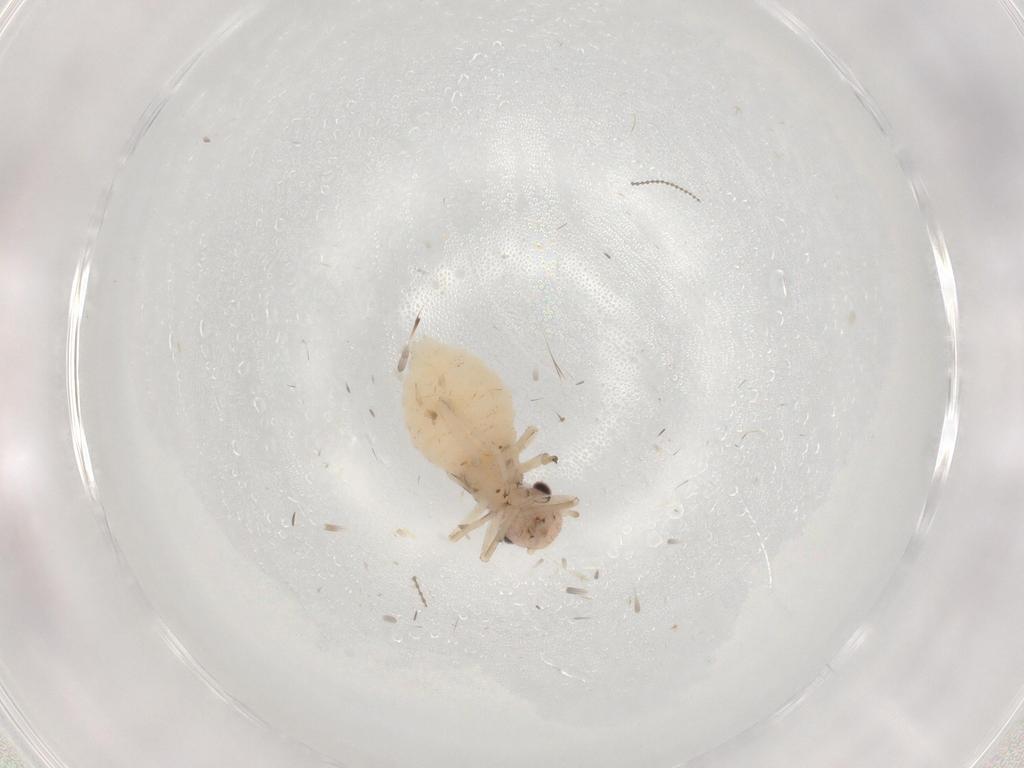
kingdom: Animalia
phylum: Arthropoda
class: Insecta
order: Psocodea
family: Caeciliusidae
